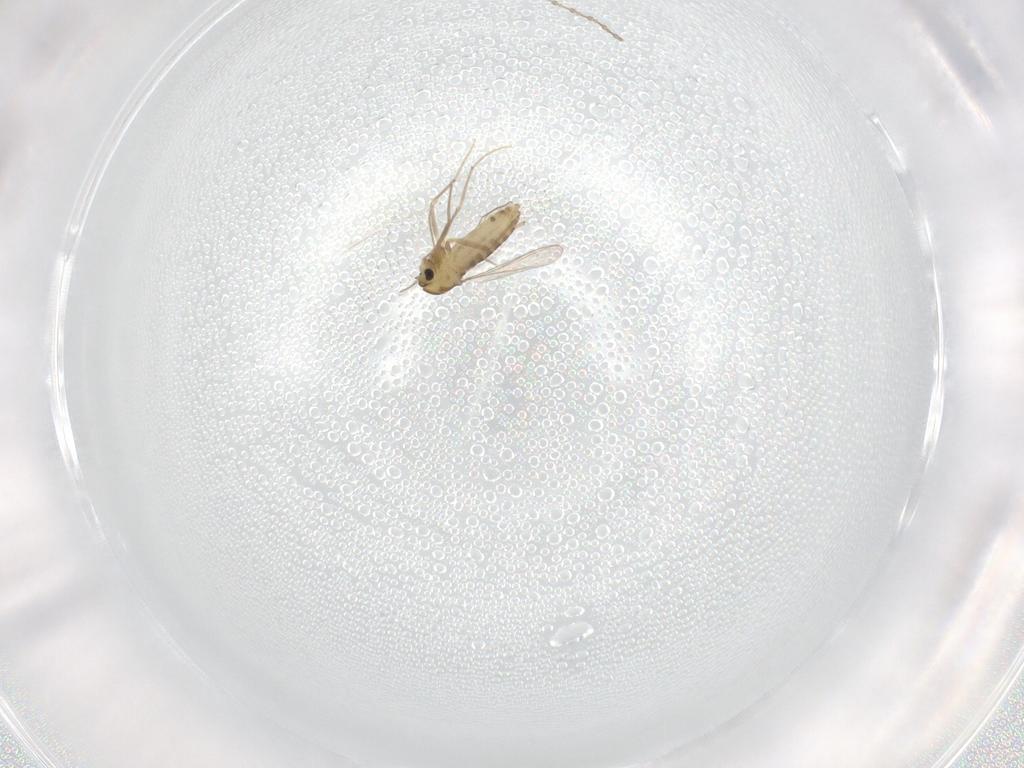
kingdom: Animalia
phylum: Arthropoda
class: Insecta
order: Diptera
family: Chironomidae
